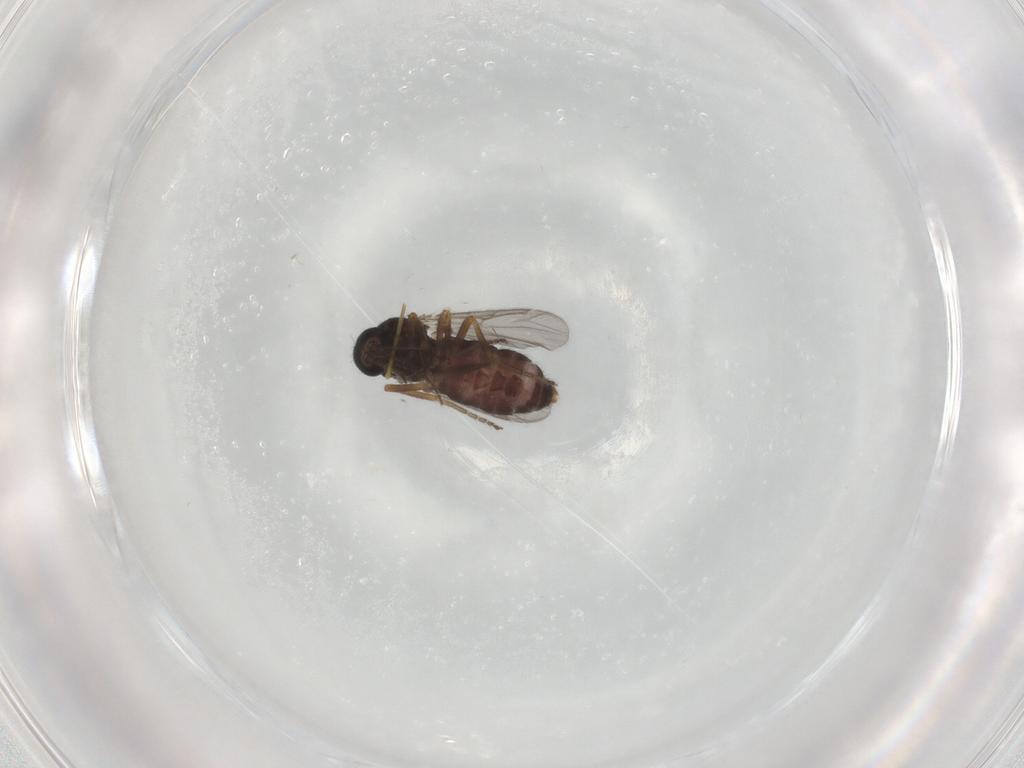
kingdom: Animalia
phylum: Arthropoda
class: Insecta
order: Diptera
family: Ceratopogonidae
